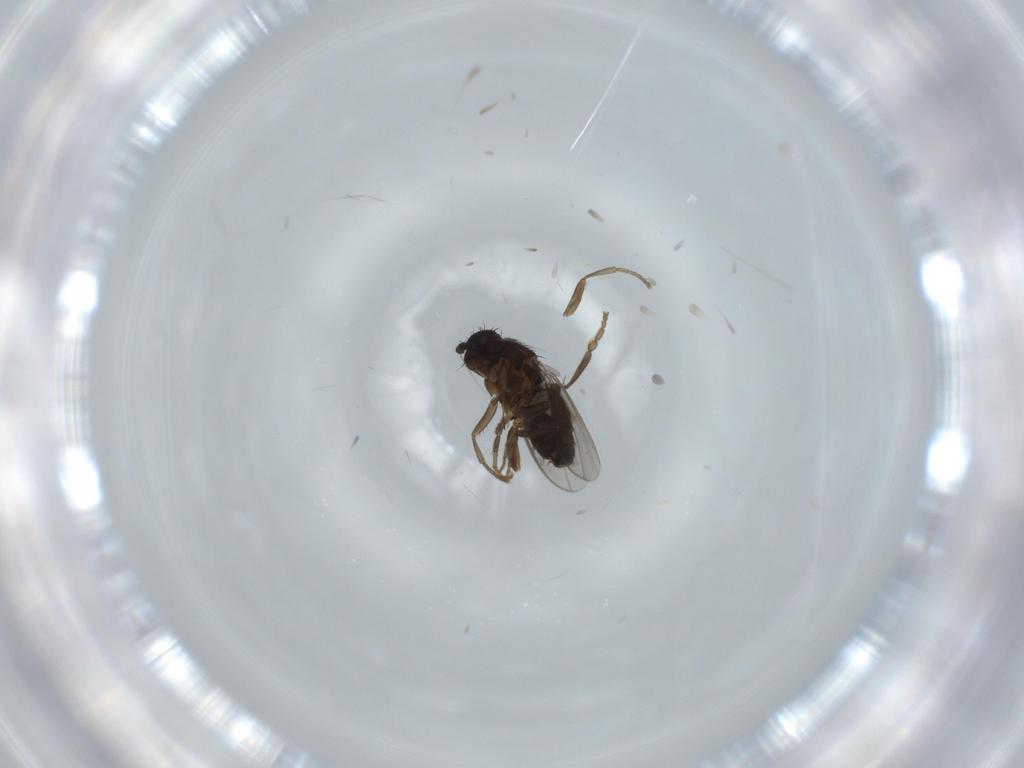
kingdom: Animalia
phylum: Arthropoda
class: Insecta
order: Diptera
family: Sphaeroceridae
